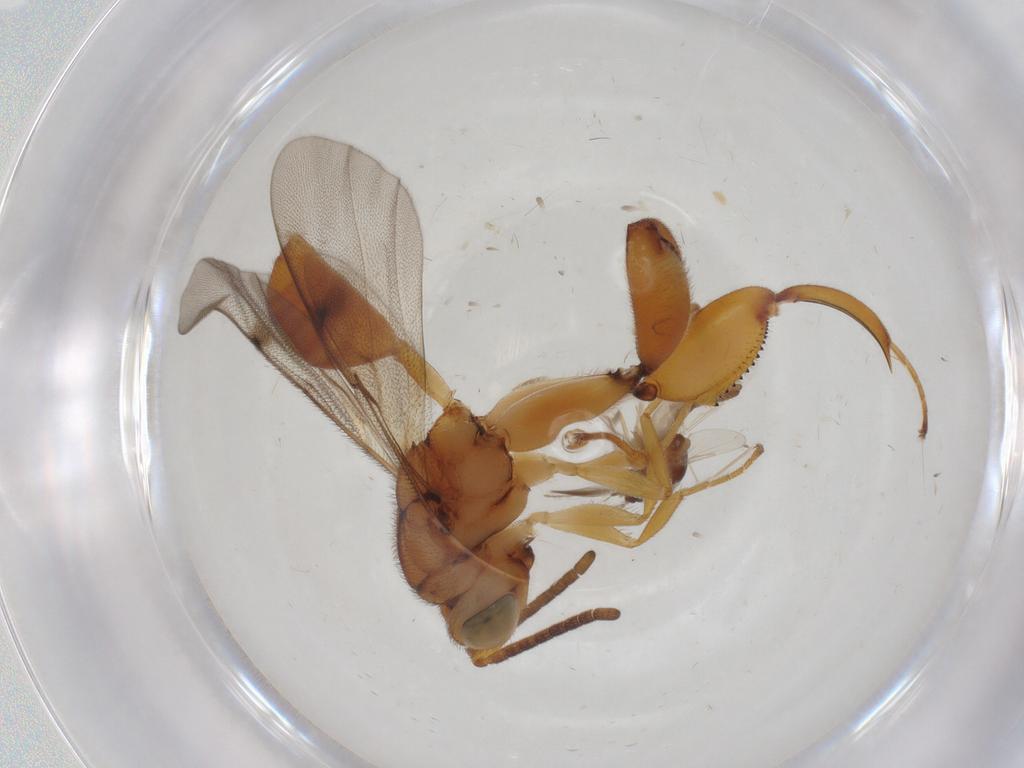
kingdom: Animalia
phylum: Arthropoda
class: Insecta
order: Hymenoptera
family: Chalcididae
